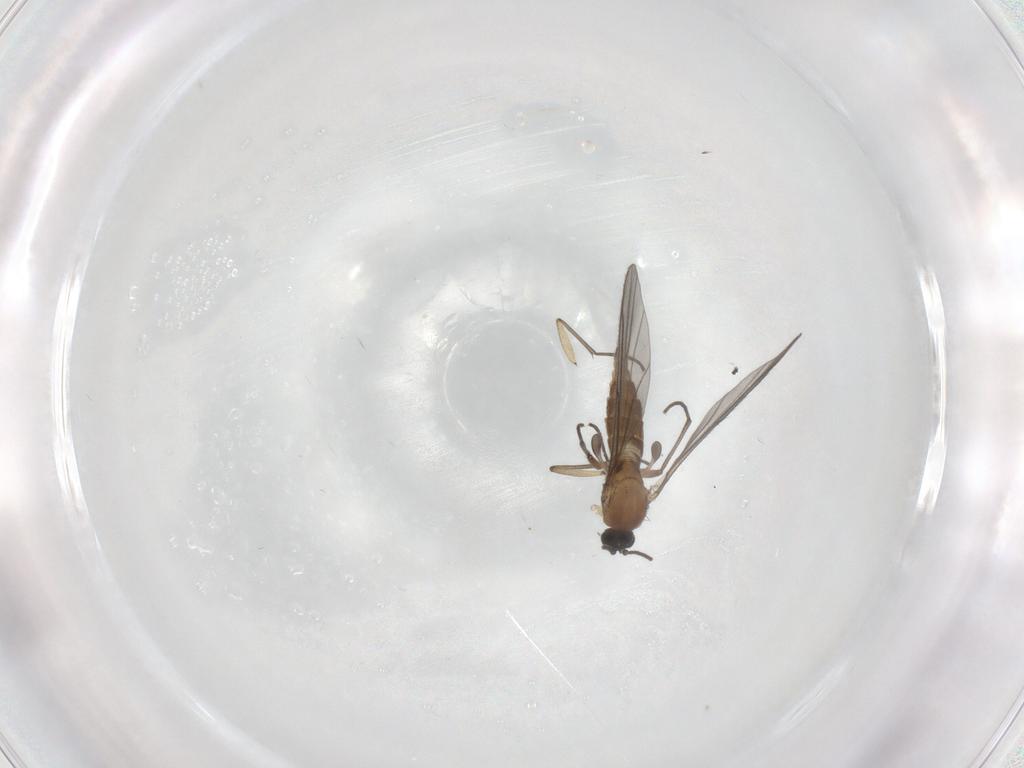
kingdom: Animalia
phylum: Arthropoda
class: Insecta
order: Diptera
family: Sciaridae
